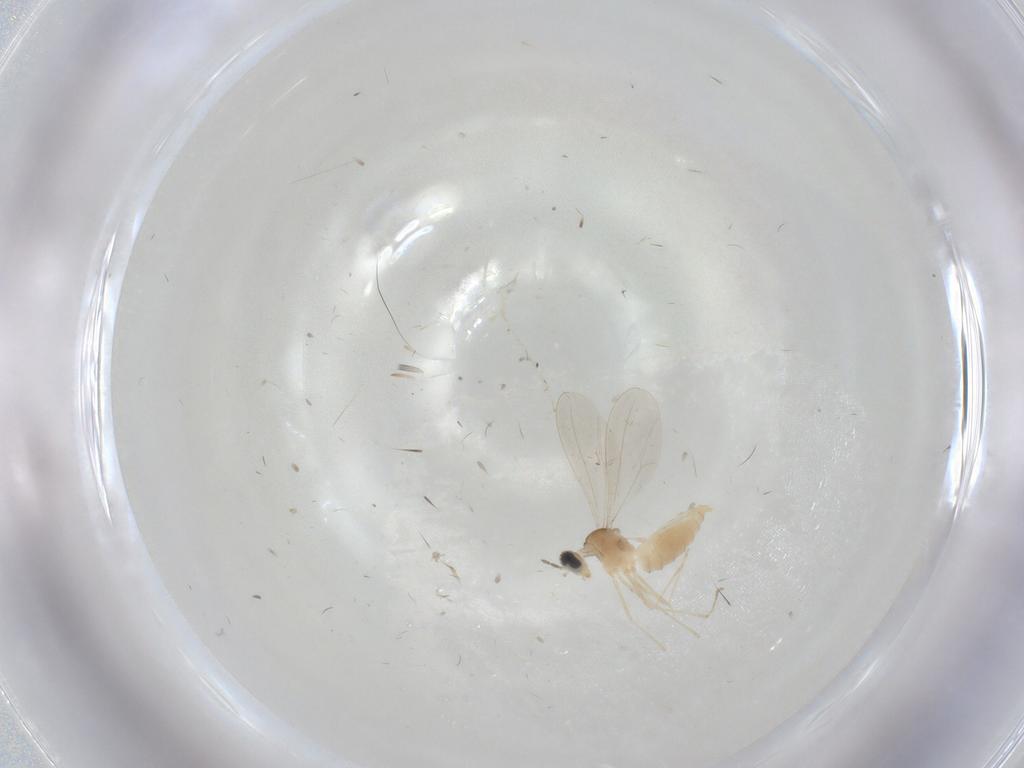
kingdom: Animalia
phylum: Arthropoda
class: Insecta
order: Diptera
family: Cecidomyiidae
